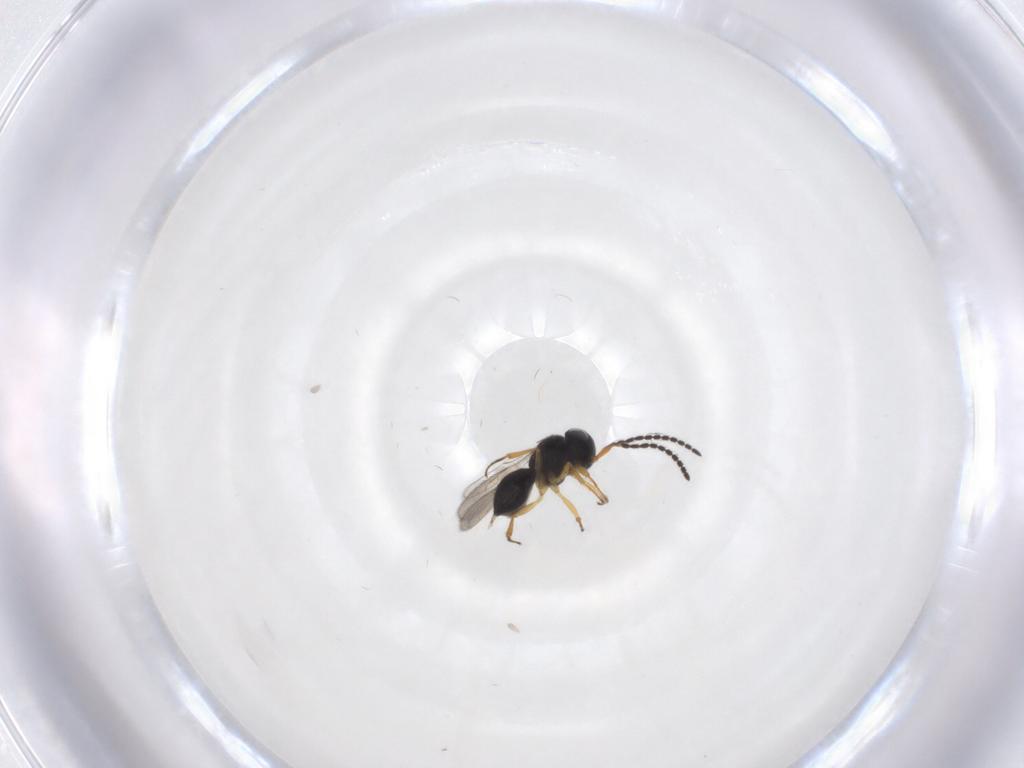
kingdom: Animalia
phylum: Arthropoda
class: Insecta
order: Hymenoptera
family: Scelionidae
